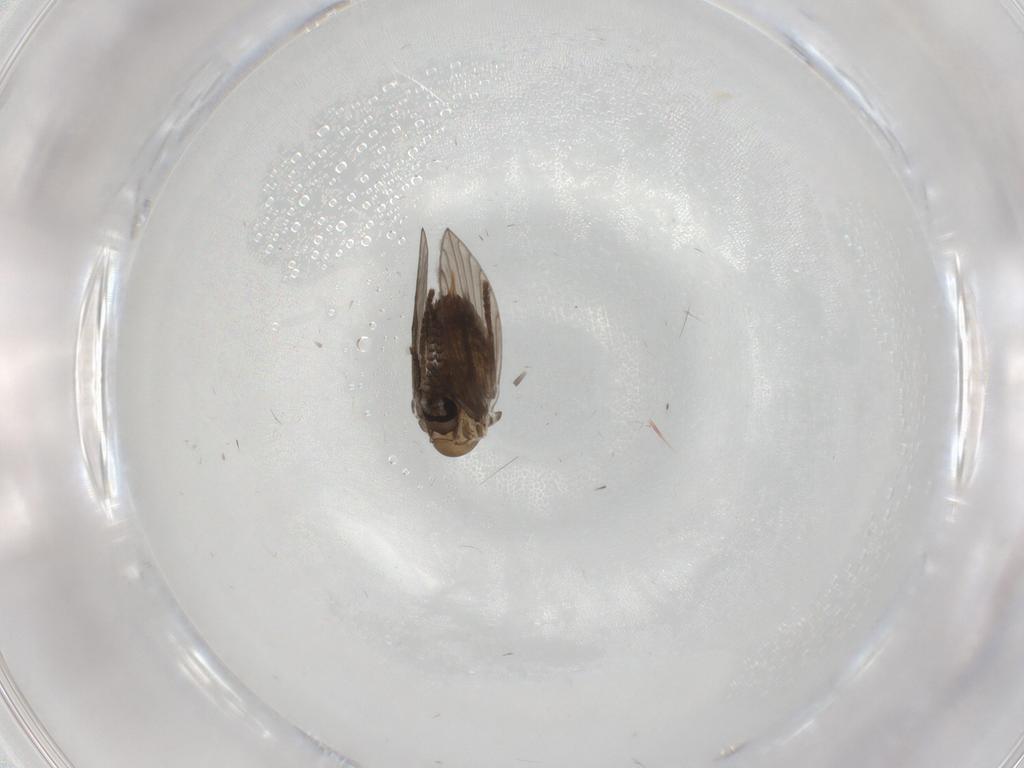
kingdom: Animalia
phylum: Arthropoda
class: Insecta
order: Diptera
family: Psychodidae
